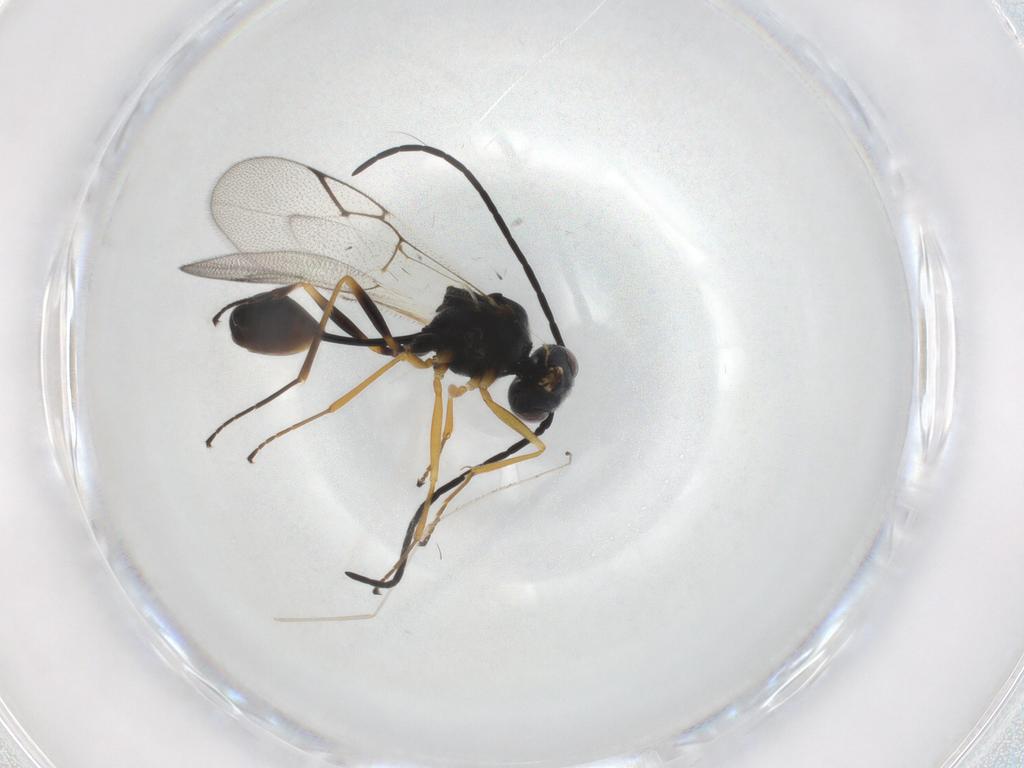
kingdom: Animalia
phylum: Arthropoda
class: Insecta
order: Hymenoptera
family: Figitidae
